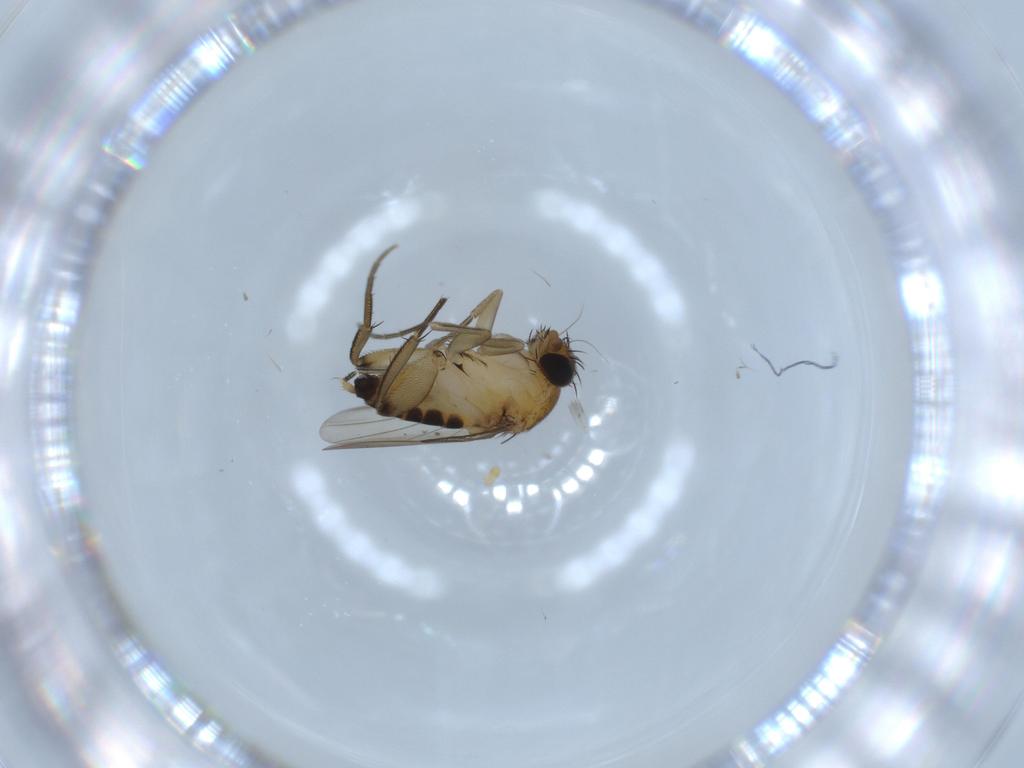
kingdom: Animalia
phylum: Arthropoda
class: Insecta
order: Diptera
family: Phoridae
